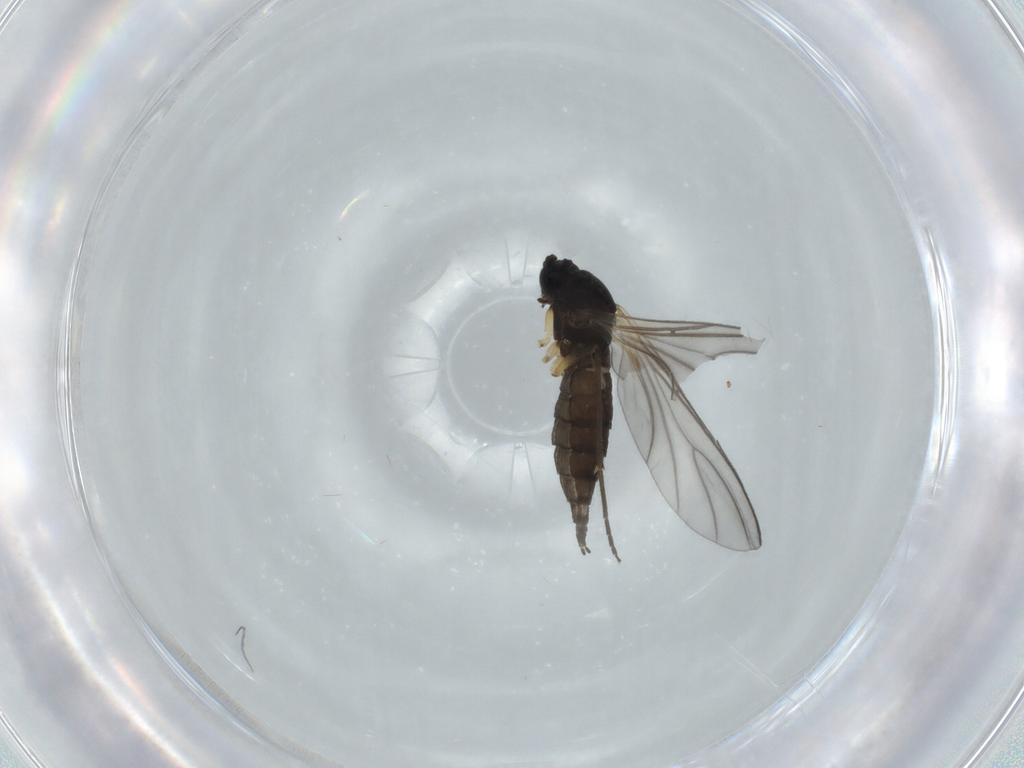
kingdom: Animalia
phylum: Arthropoda
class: Insecta
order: Diptera
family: Sciaridae
